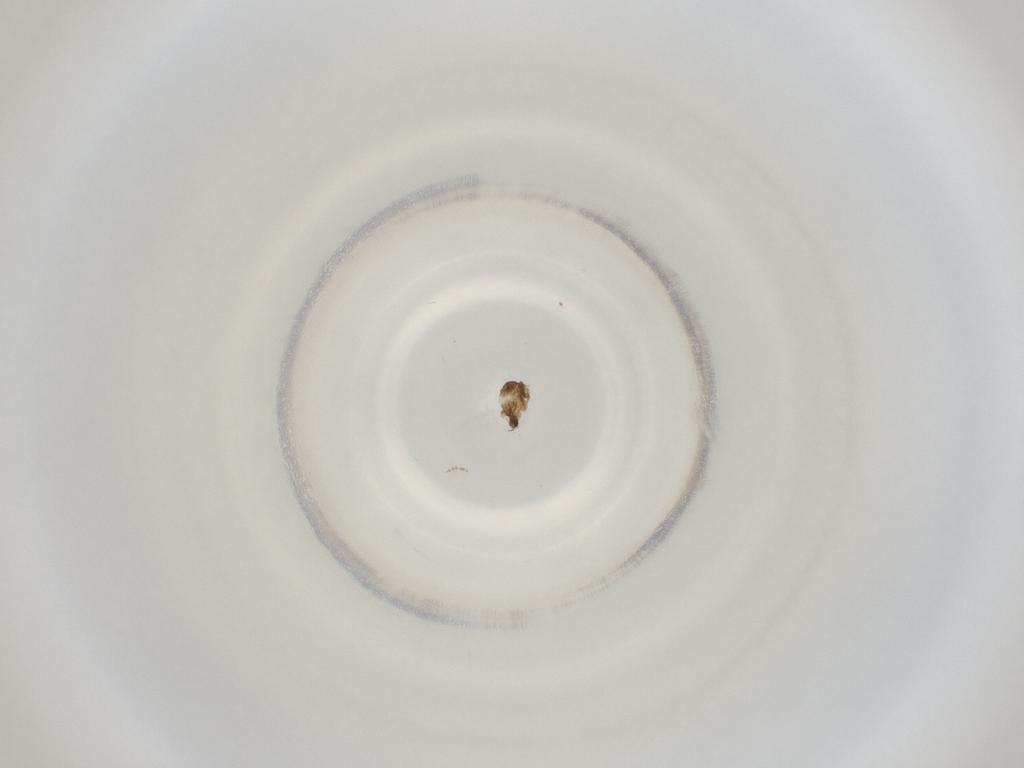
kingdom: Animalia
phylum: Arthropoda
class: Insecta
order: Diptera
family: Cecidomyiidae
